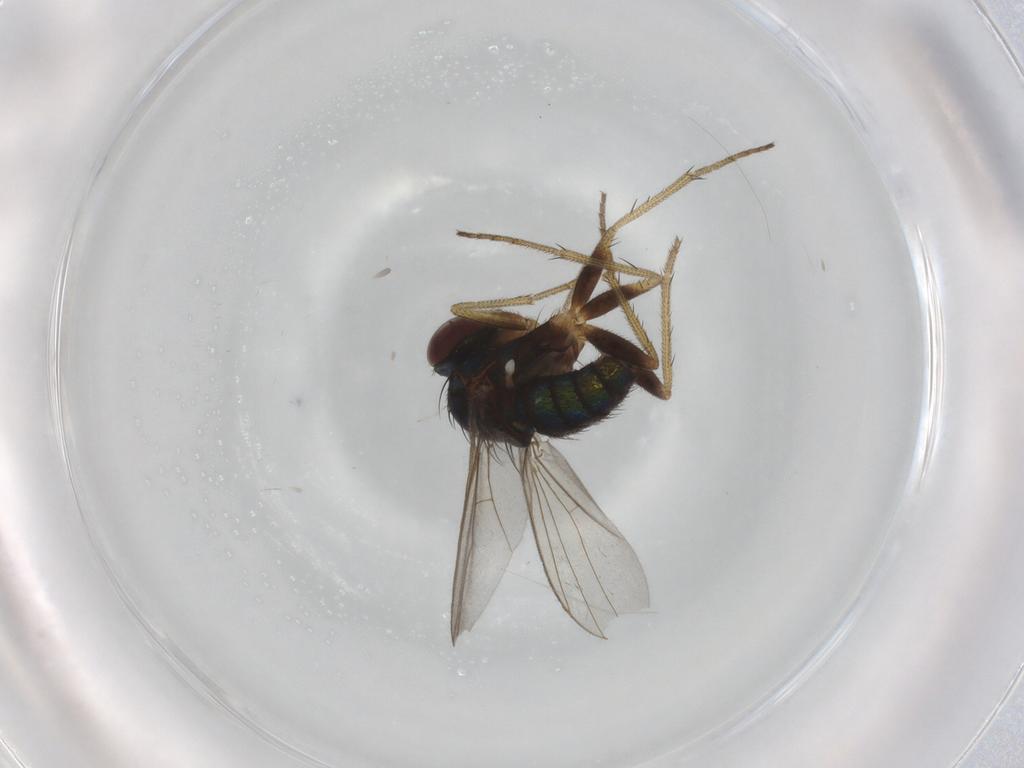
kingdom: Animalia
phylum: Arthropoda
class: Insecta
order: Diptera
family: Dolichopodidae
